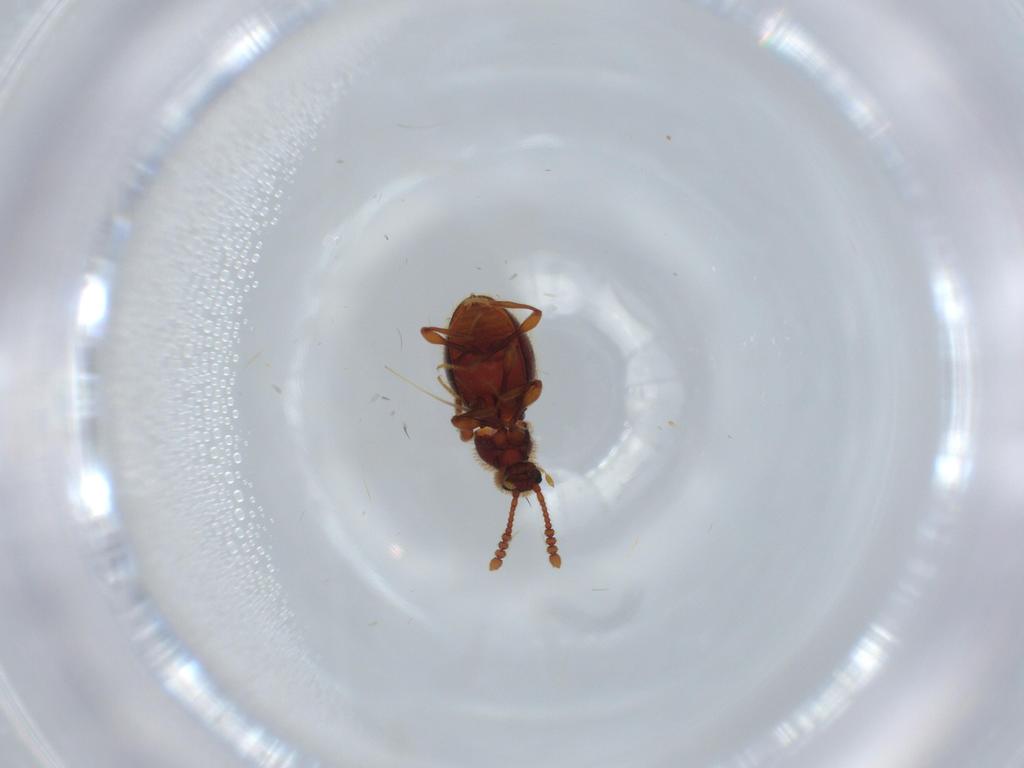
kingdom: Animalia
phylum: Arthropoda
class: Insecta
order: Coleoptera
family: Staphylinidae
